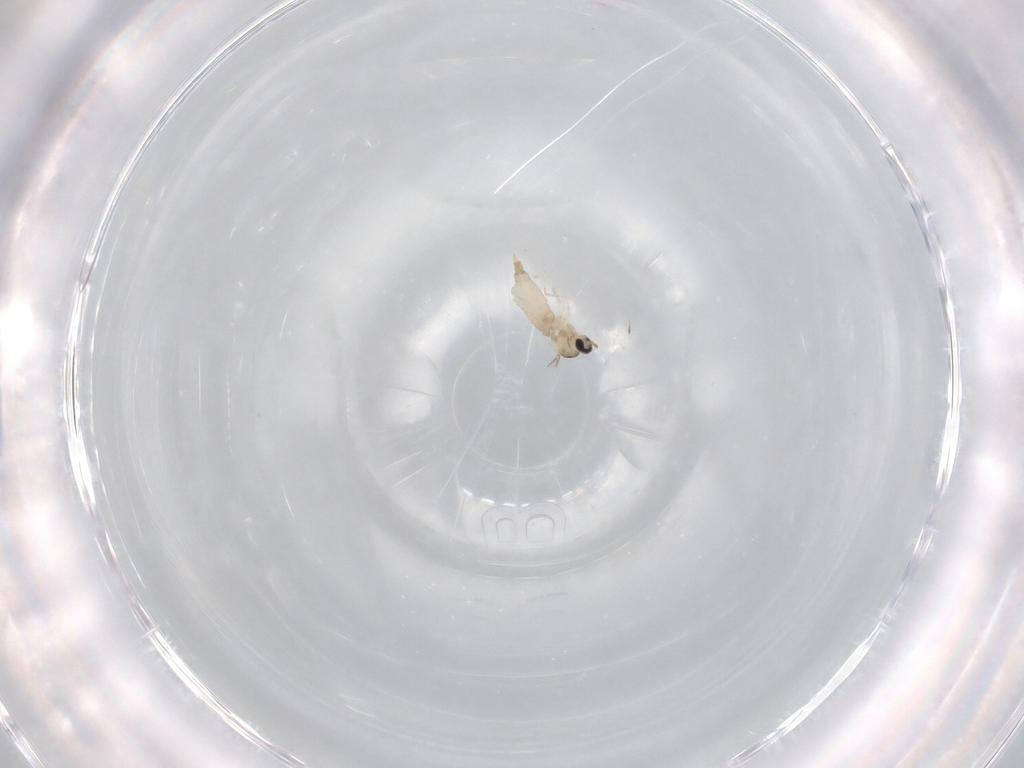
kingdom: Animalia
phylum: Arthropoda
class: Insecta
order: Diptera
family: Cecidomyiidae
